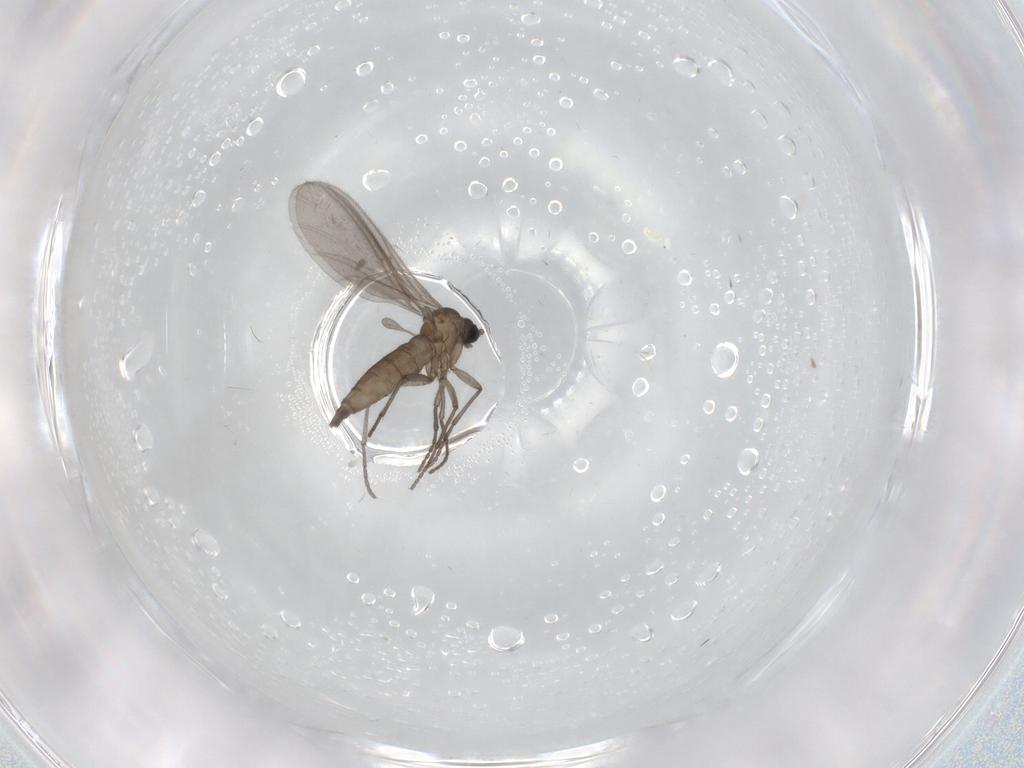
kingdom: Animalia
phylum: Arthropoda
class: Insecta
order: Diptera
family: Sciaridae
